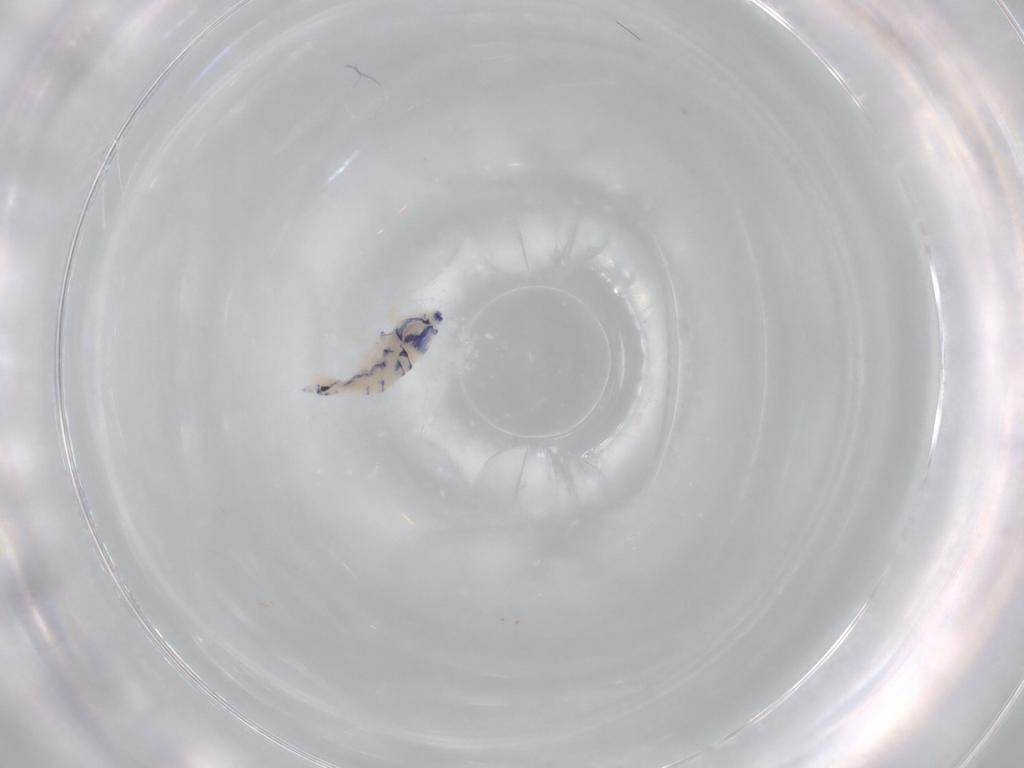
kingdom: Animalia
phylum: Arthropoda
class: Collembola
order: Entomobryomorpha
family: Entomobryidae
